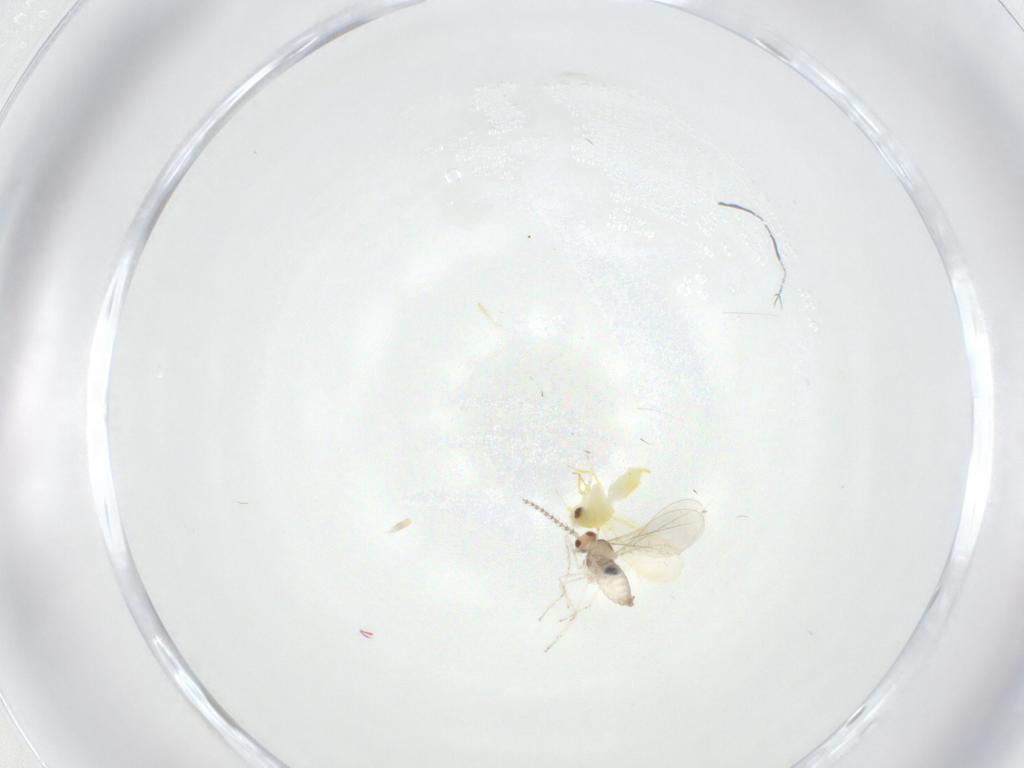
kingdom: Animalia
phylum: Arthropoda
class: Insecta
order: Diptera
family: Cecidomyiidae
